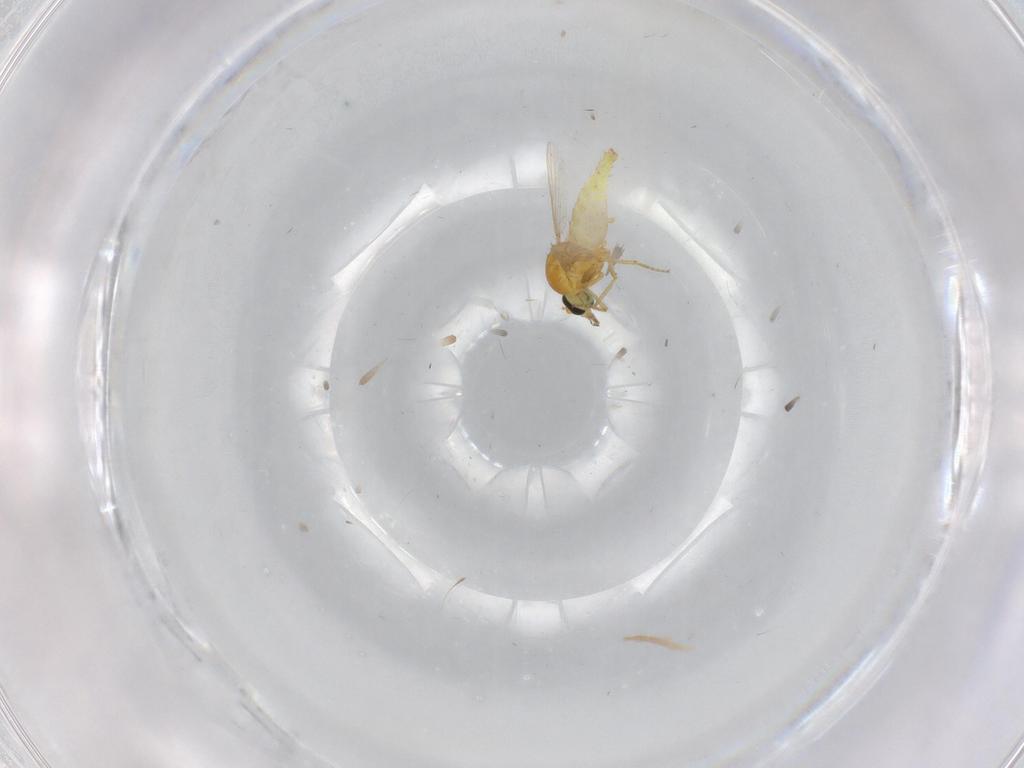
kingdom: Animalia
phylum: Arthropoda
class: Insecta
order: Diptera
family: Ceratopogonidae
